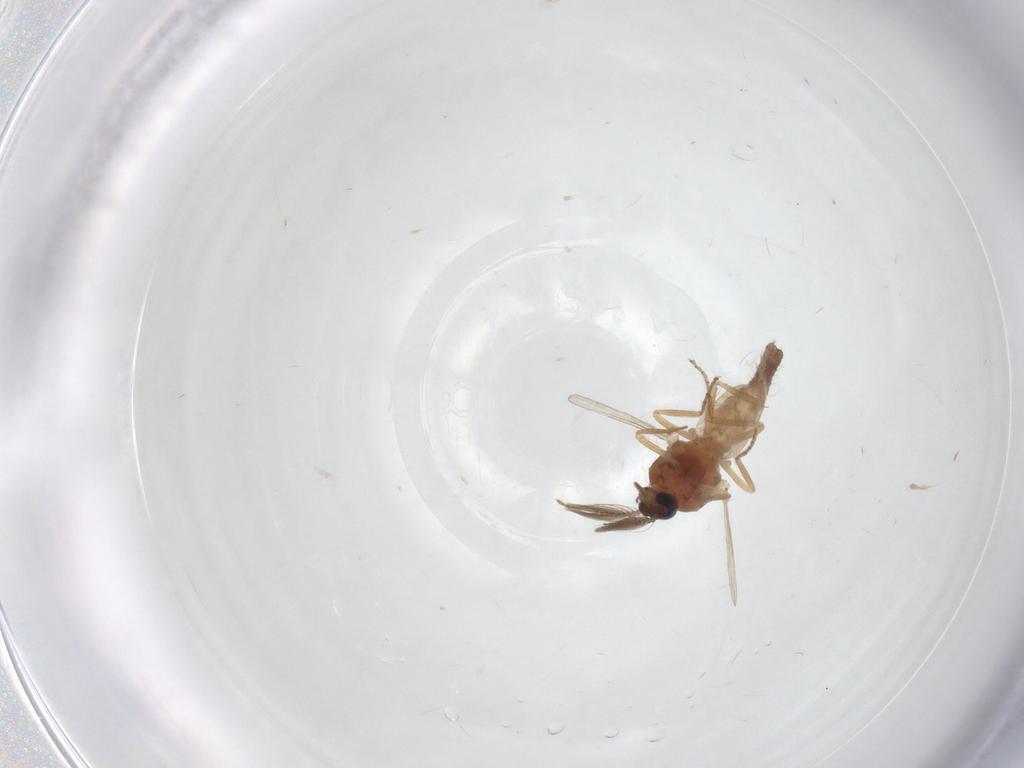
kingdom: Animalia
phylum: Arthropoda
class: Insecta
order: Diptera
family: Ceratopogonidae
